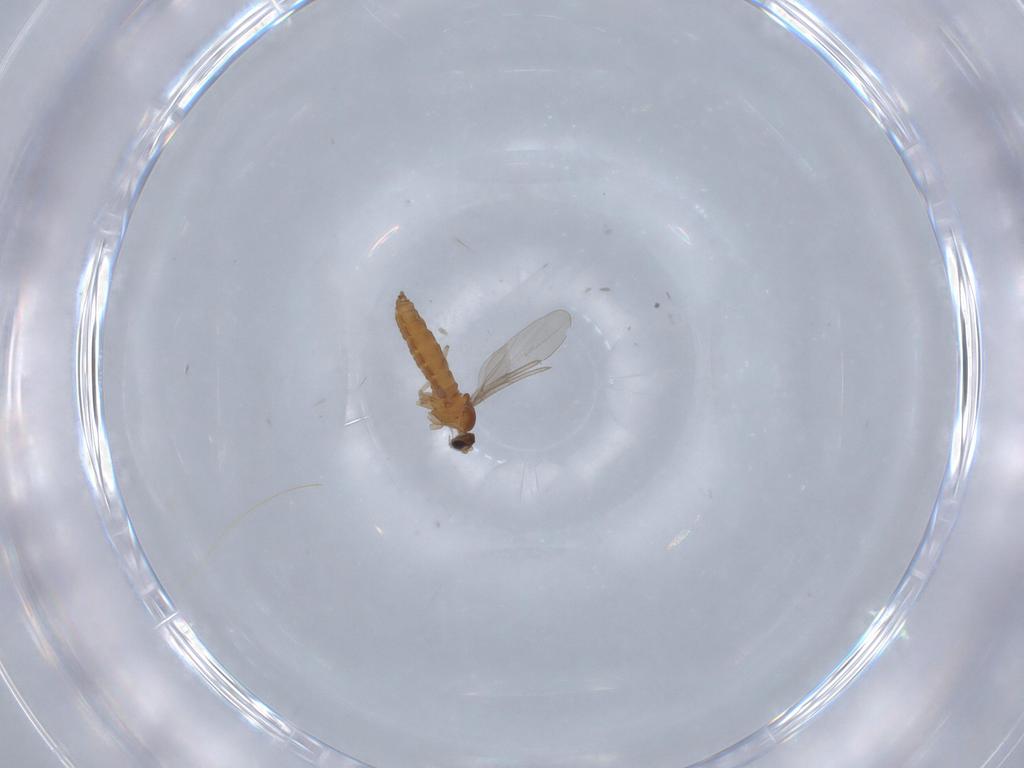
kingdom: Animalia
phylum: Arthropoda
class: Insecta
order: Diptera
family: Cecidomyiidae
